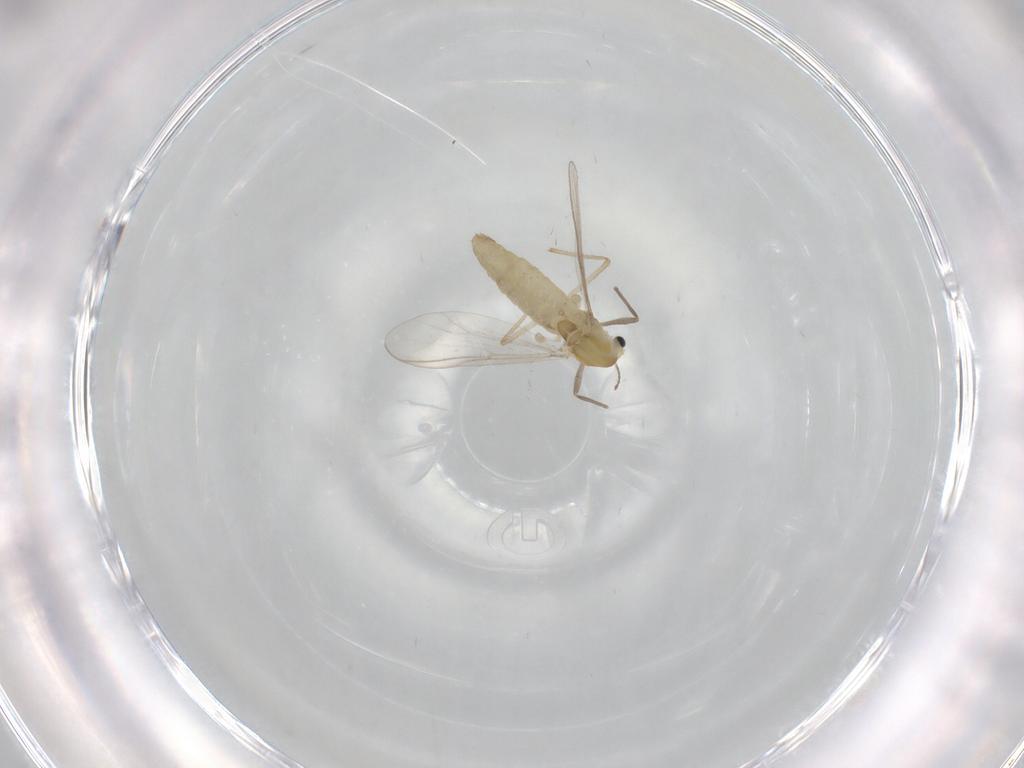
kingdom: Animalia
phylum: Arthropoda
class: Insecta
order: Diptera
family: Chironomidae
